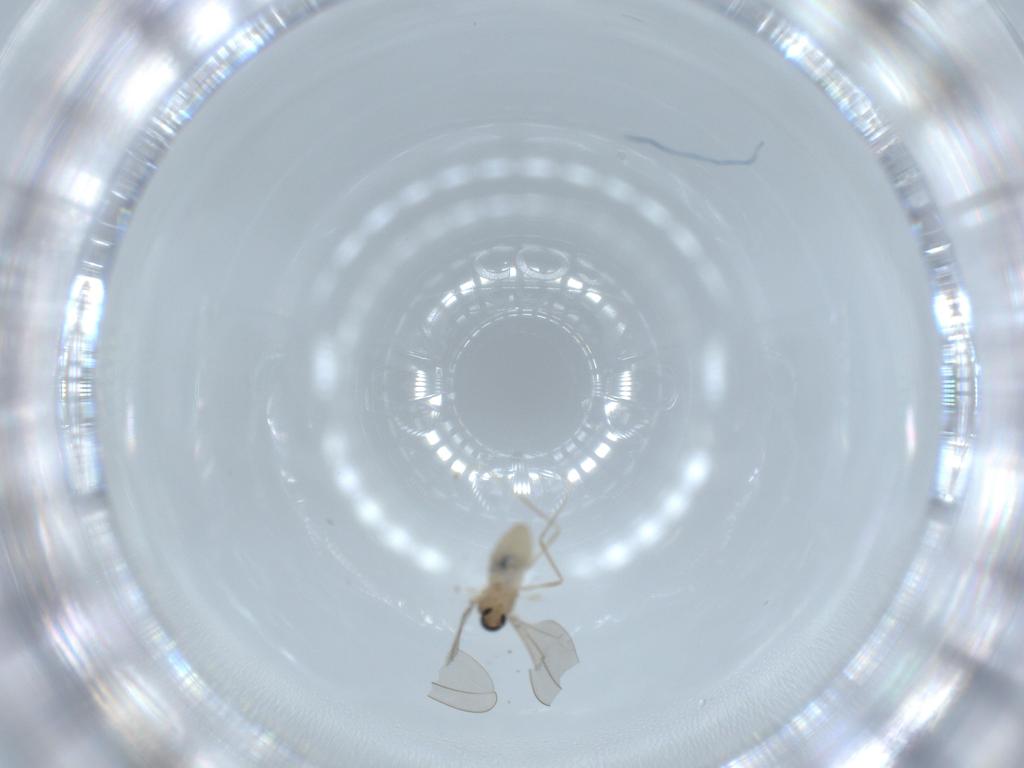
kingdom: Animalia
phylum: Arthropoda
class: Insecta
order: Diptera
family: Cecidomyiidae
